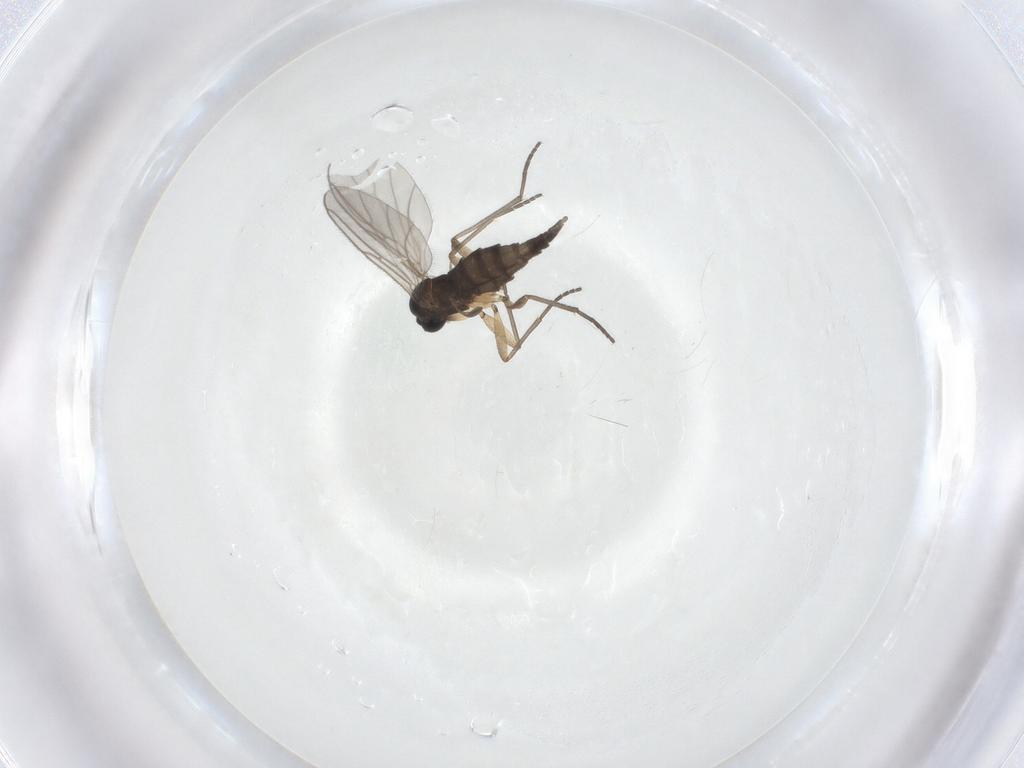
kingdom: Animalia
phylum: Arthropoda
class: Insecta
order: Diptera
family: Sciaridae
